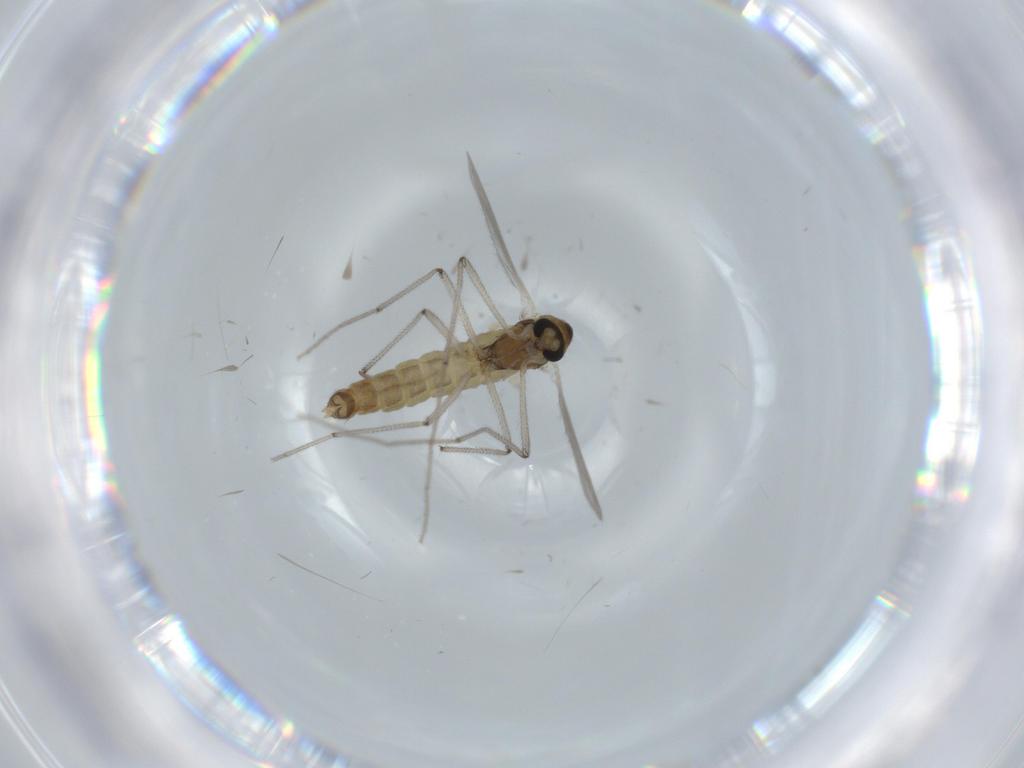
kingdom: Animalia
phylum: Arthropoda
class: Insecta
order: Diptera
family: Chironomidae
